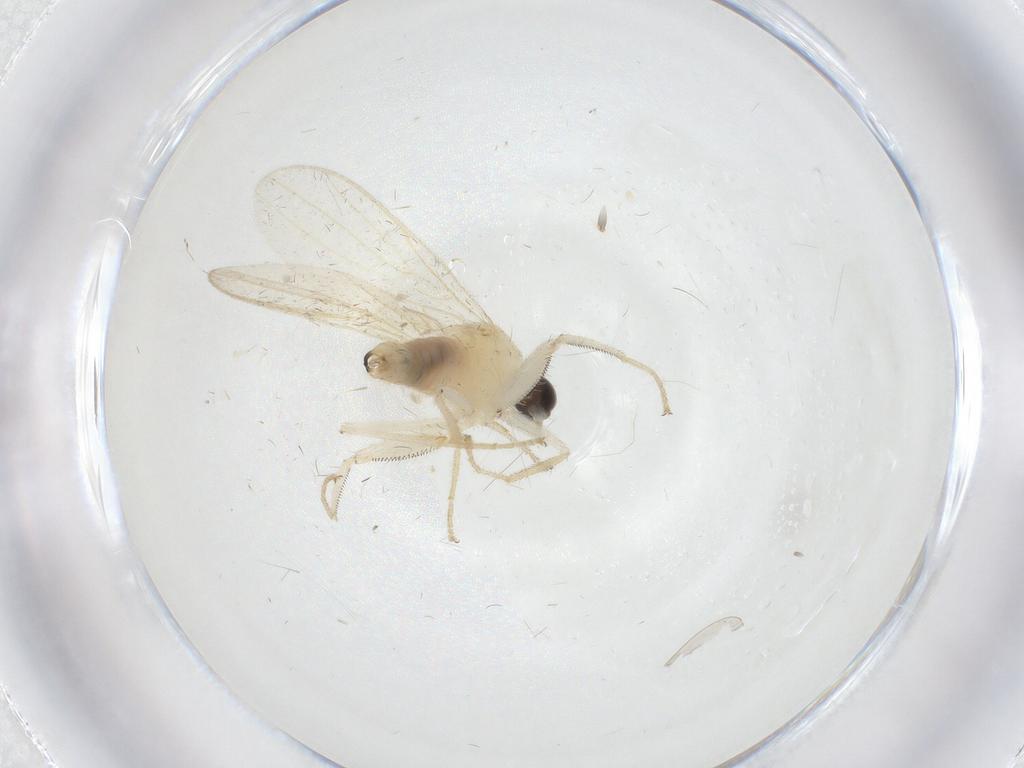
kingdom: Animalia
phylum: Arthropoda
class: Insecta
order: Diptera
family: Hybotidae
